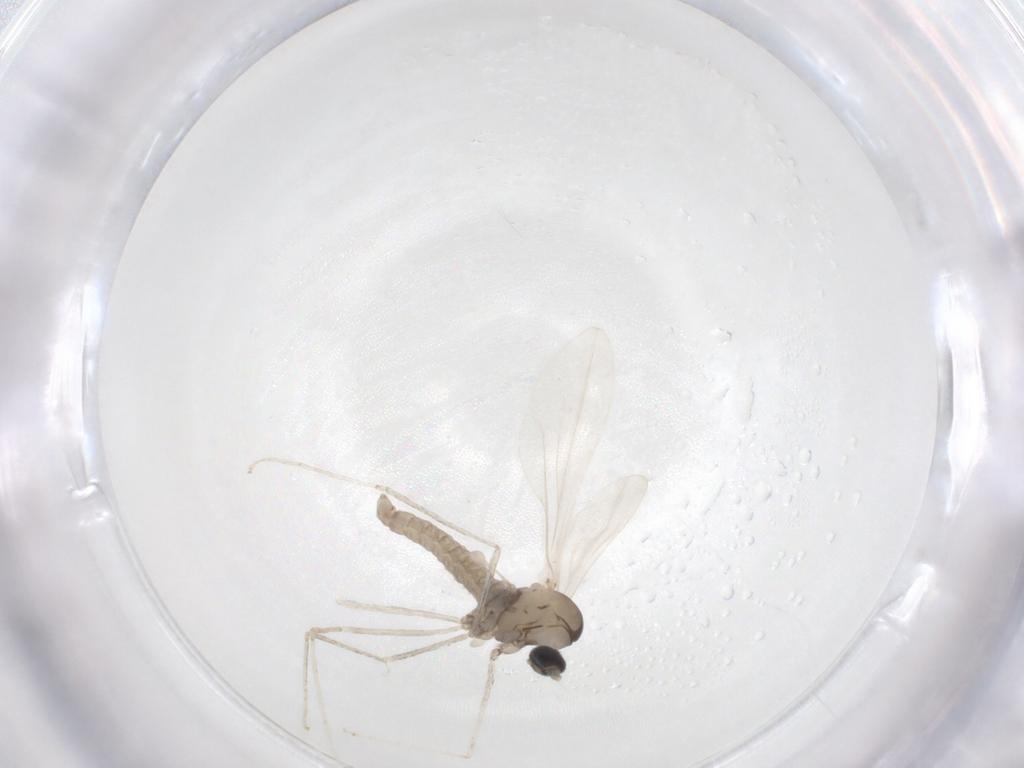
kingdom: Animalia
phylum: Arthropoda
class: Insecta
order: Diptera
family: Cecidomyiidae
